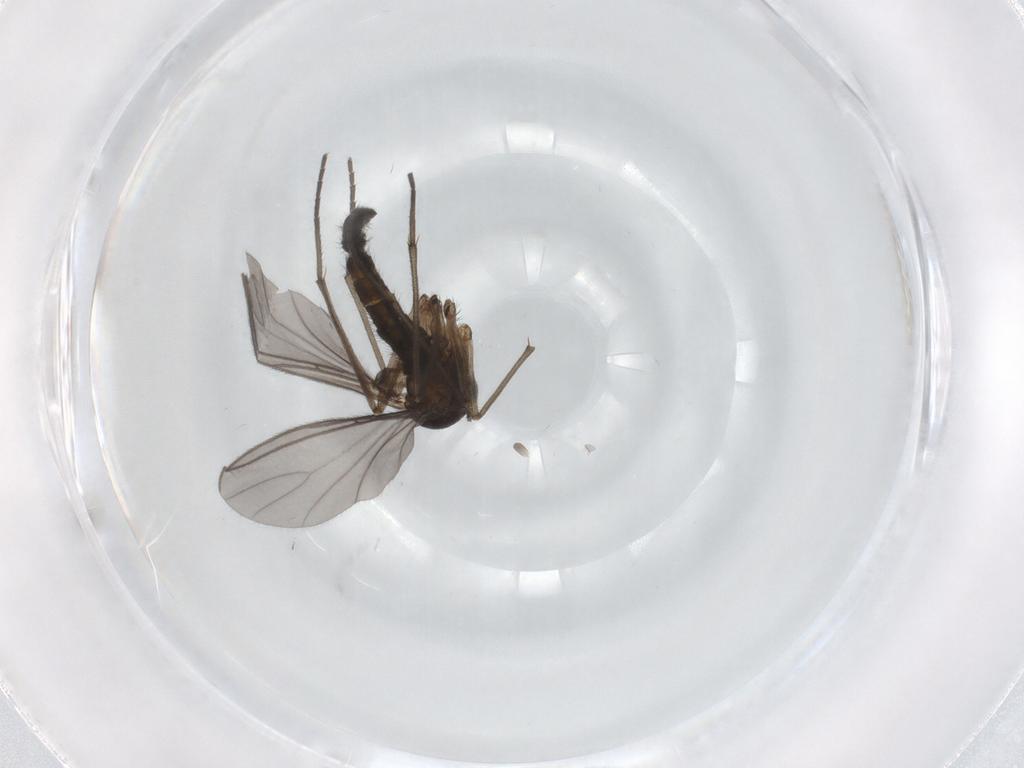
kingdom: Animalia
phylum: Arthropoda
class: Insecta
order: Diptera
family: Sciaridae
